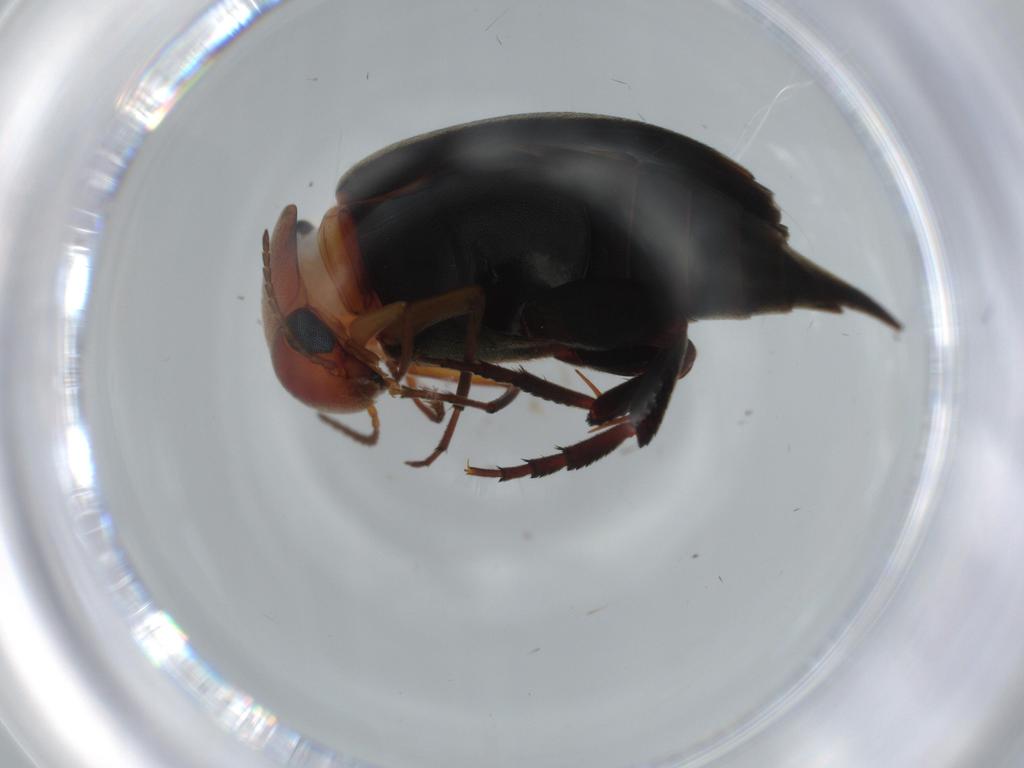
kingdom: Animalia
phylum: Arthropoda
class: Insecta
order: Coleoptera
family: Mordellidae
